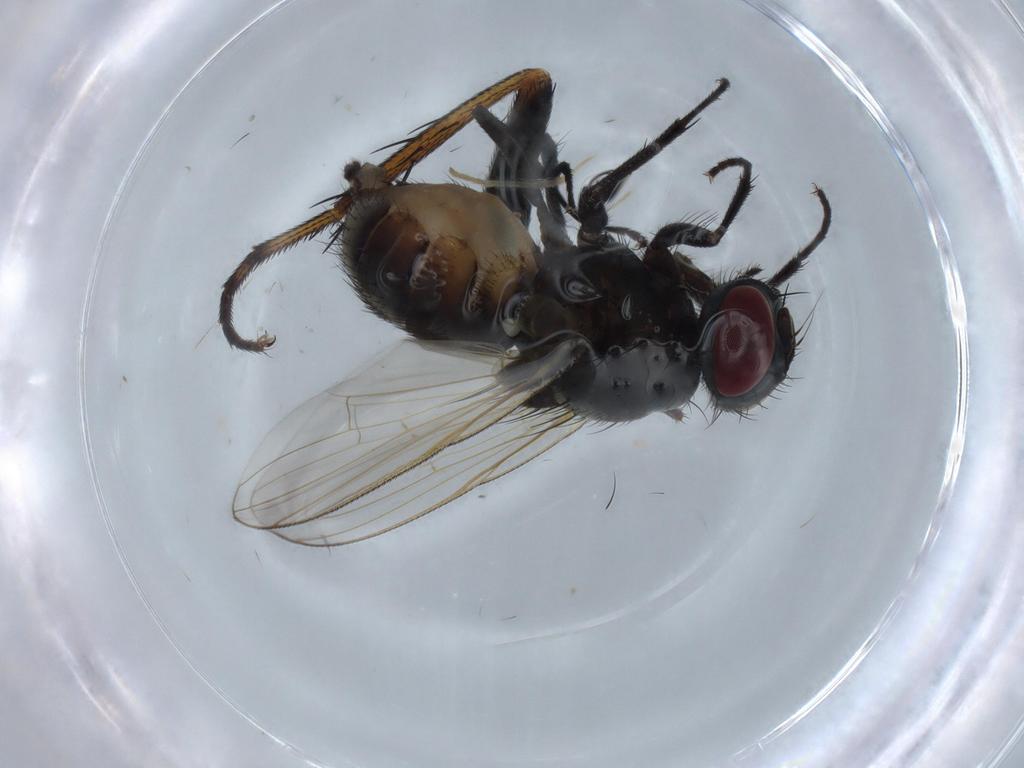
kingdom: Animalia
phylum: Arthropoda
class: Insecta
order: Diptera
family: Muscidae
